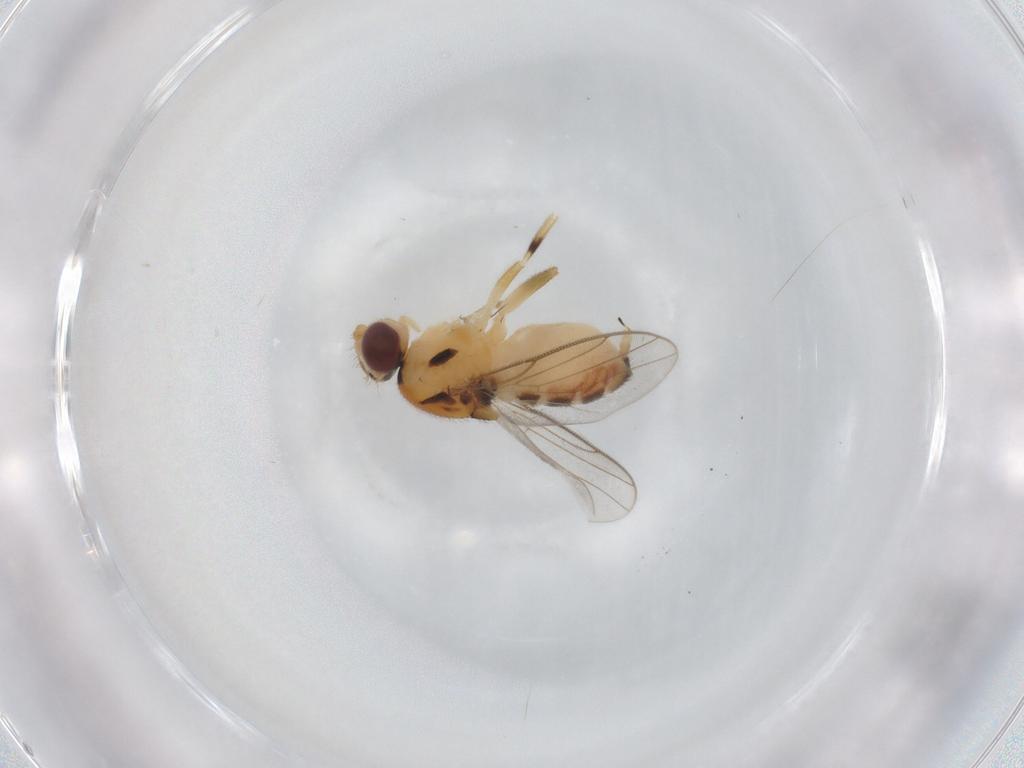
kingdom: Animalia
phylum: Arthropoda
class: Insecta
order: Diptera
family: Chloropidae
